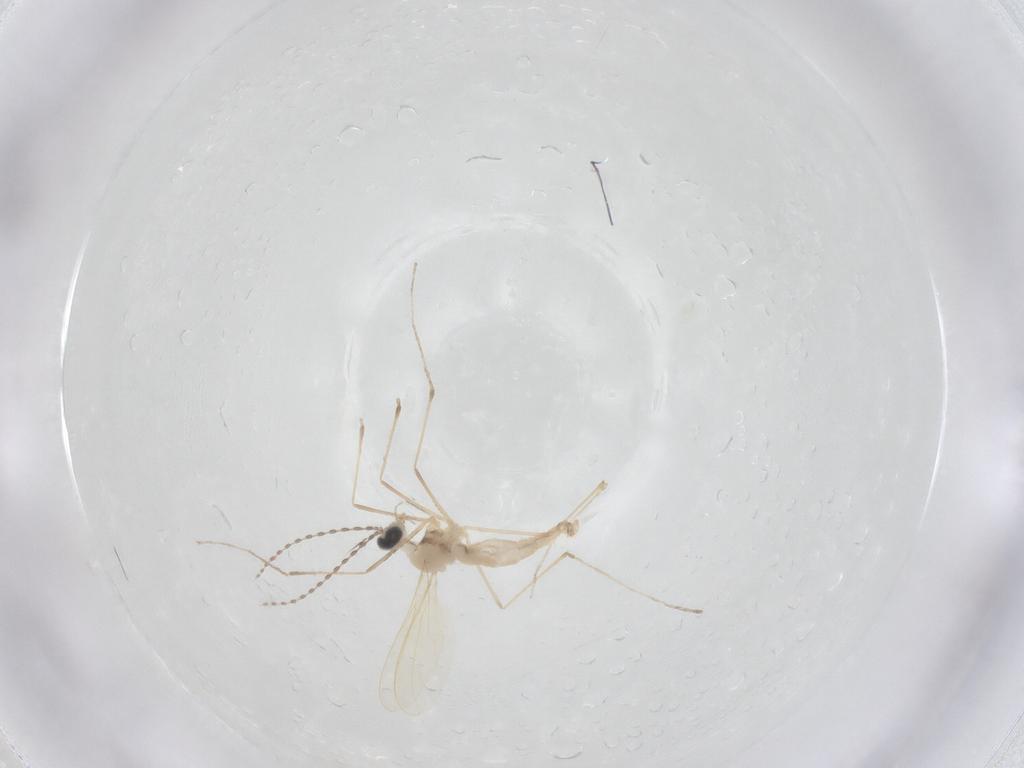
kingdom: Animalia
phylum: Arthropoda
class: Insecta
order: Diptera
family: Cecidomyiidae
